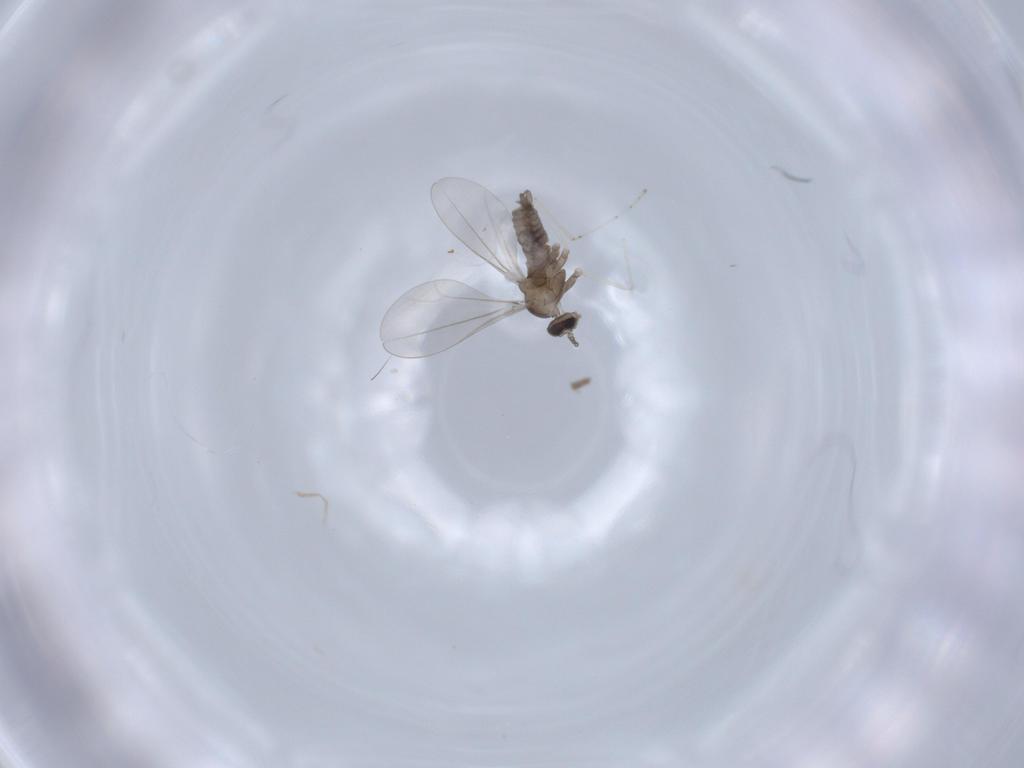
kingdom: Animalia
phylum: Arthropoda
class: Insecta
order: Diptera
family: Cecidomyiidae
